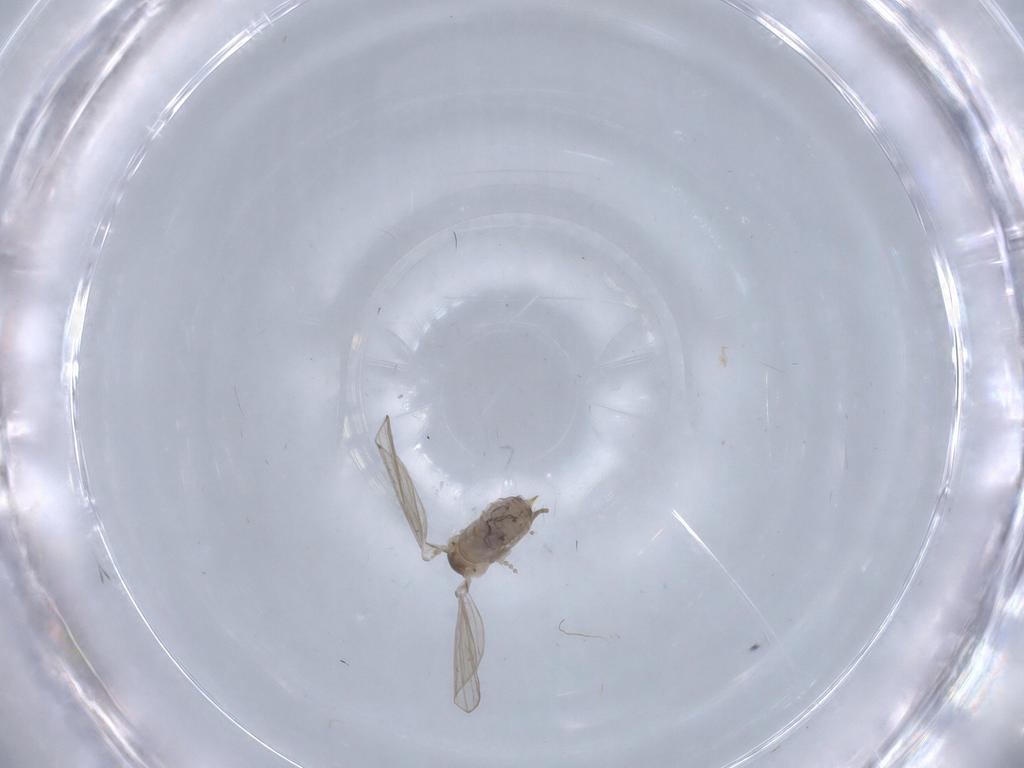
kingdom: Animalia
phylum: Arthropoda
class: Insecta
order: Diptera
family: Psychodidae
